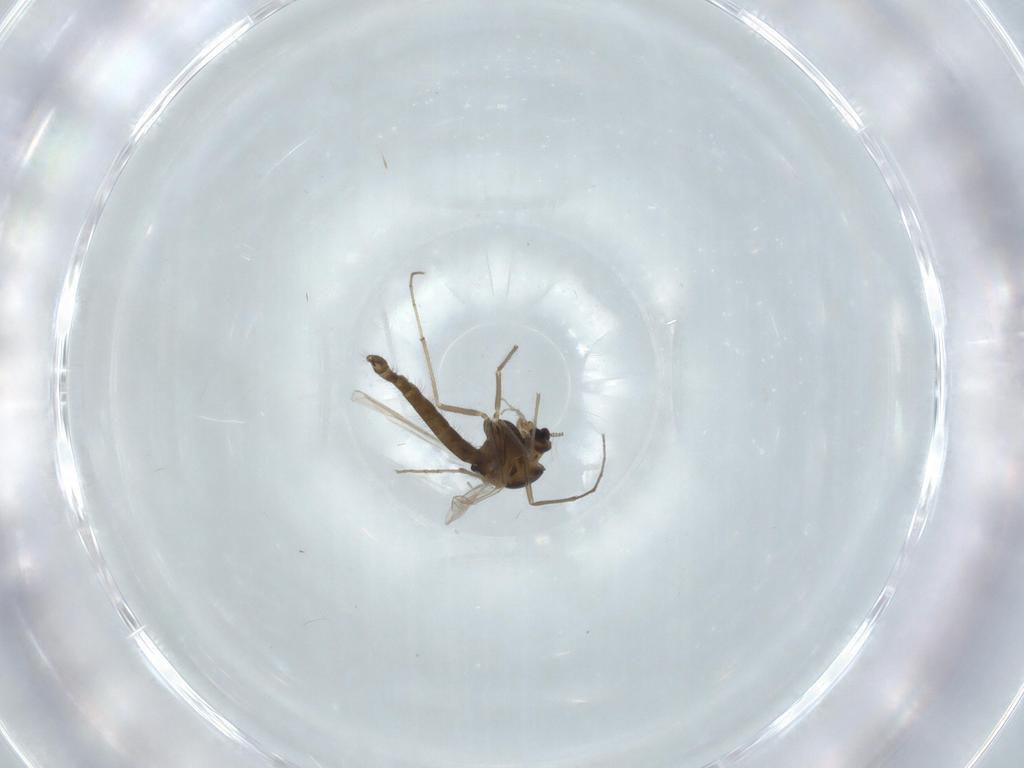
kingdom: Animalia
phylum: Arthropoda
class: Insecta
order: Diptera
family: Chironomidae
